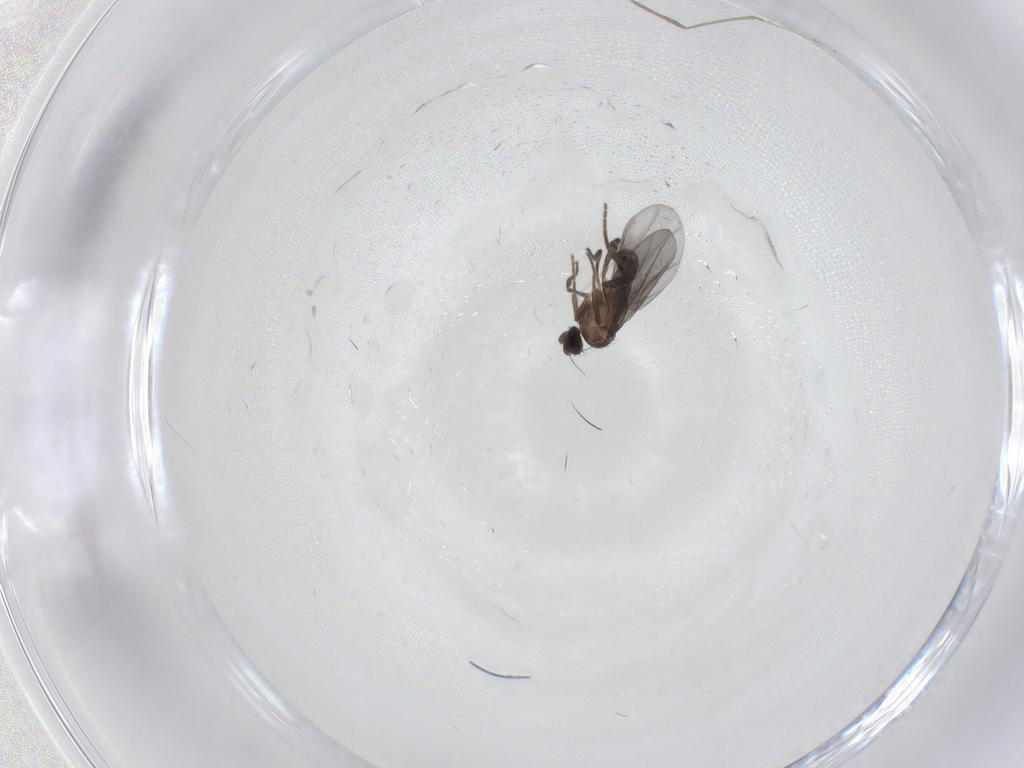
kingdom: Animalia
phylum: Arthropoda
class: Insecta
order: Diptera
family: Cecidomyiidae
